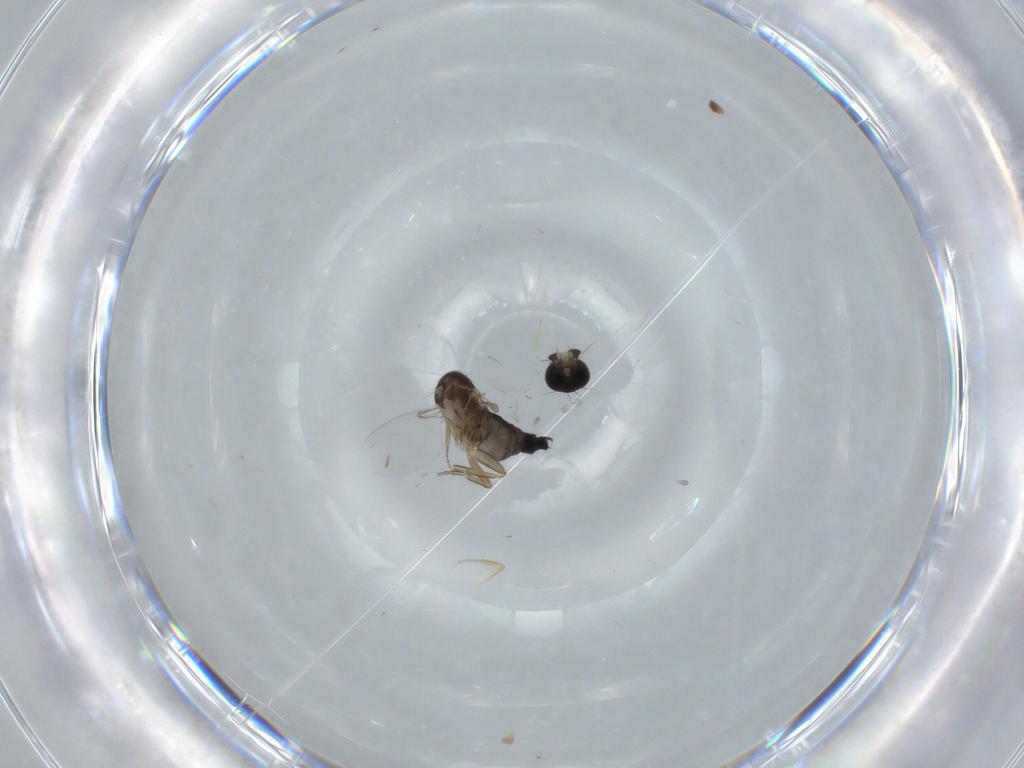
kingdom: Animalia
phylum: Arthropoda
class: Insecta
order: Diptera
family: Phoridae
